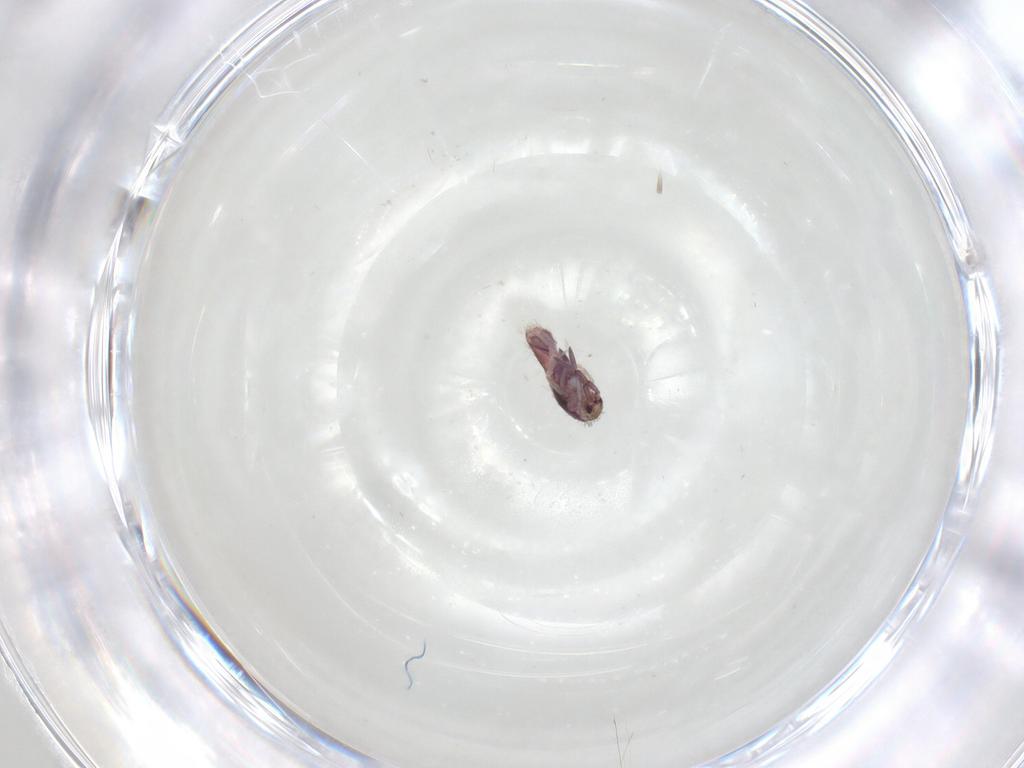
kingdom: Animalia
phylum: Arthropoda
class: Collembola
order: Entomobryomorpha
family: Entomobryidae
